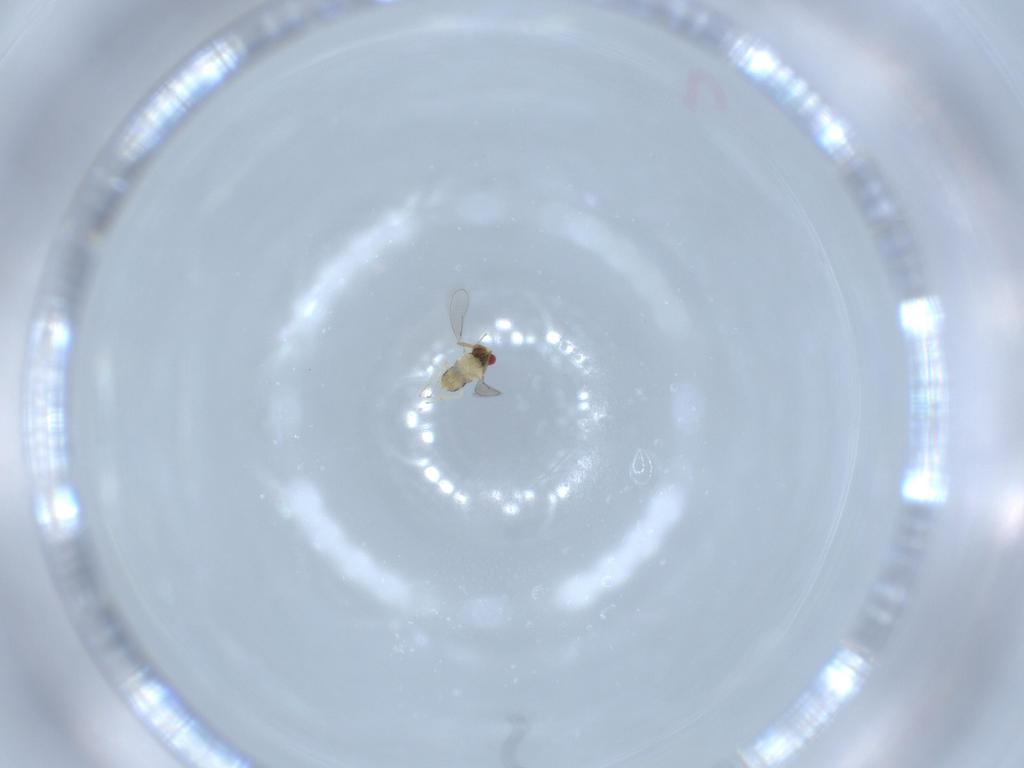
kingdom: Animalia
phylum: Arthropoda
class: Insecta
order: Hymenoptera
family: Aphelinidae
